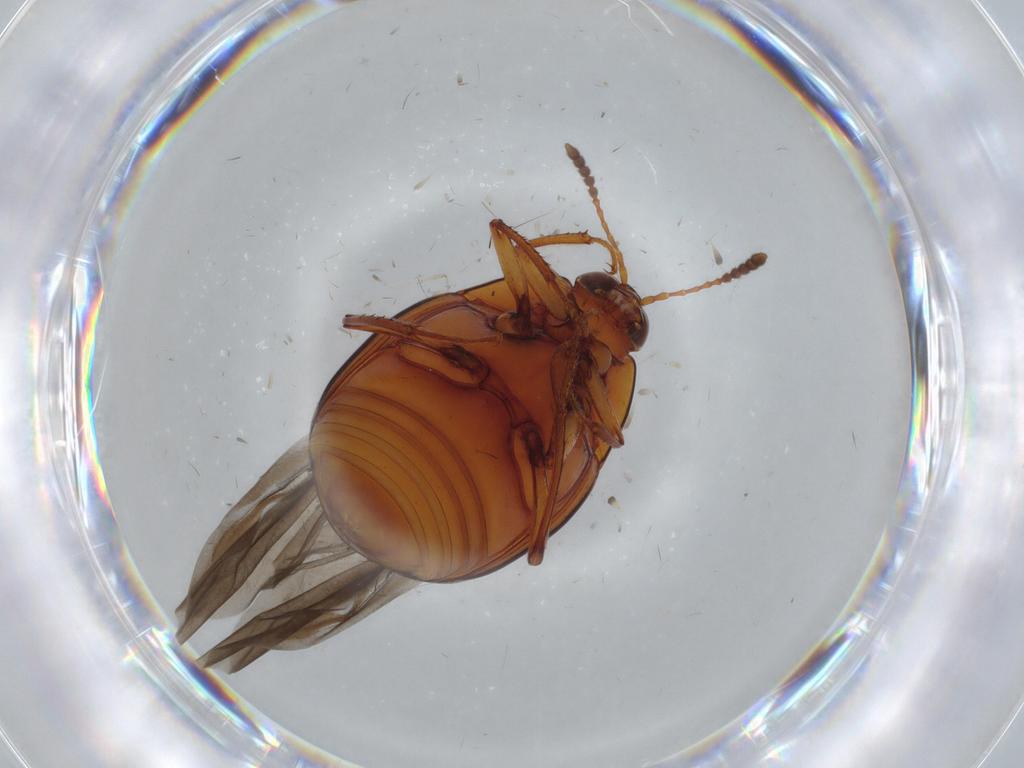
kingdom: Animalia
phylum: Arthropoda
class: Insecta
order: Coleoptera
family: Staphylinidae
